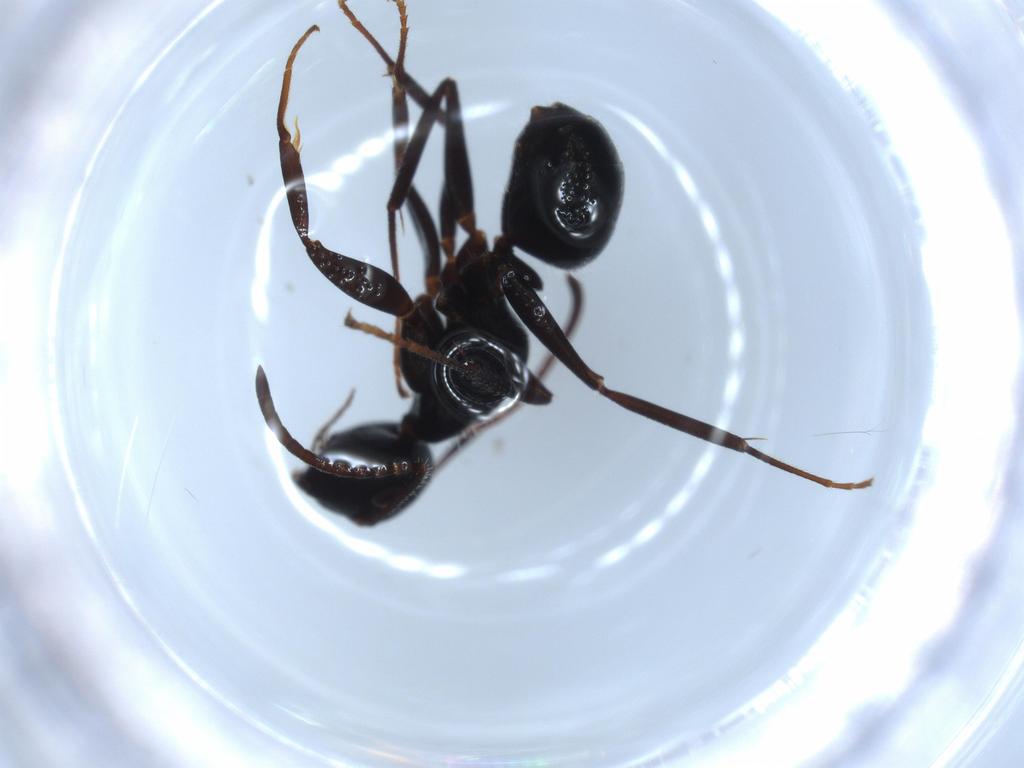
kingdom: Animalia
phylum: Arthropoda
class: Insecta
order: Hymenoptera
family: Formicidae
